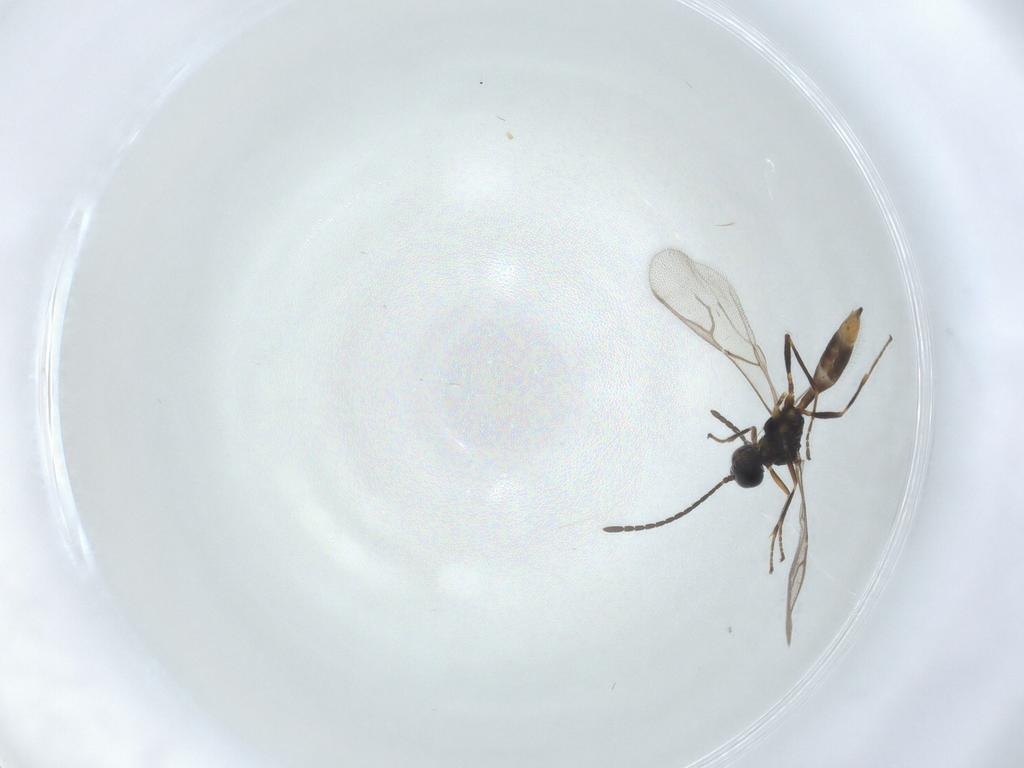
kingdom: Animalia
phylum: Arthropoda
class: Insecta
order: Hymenoptera
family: Braconidae
